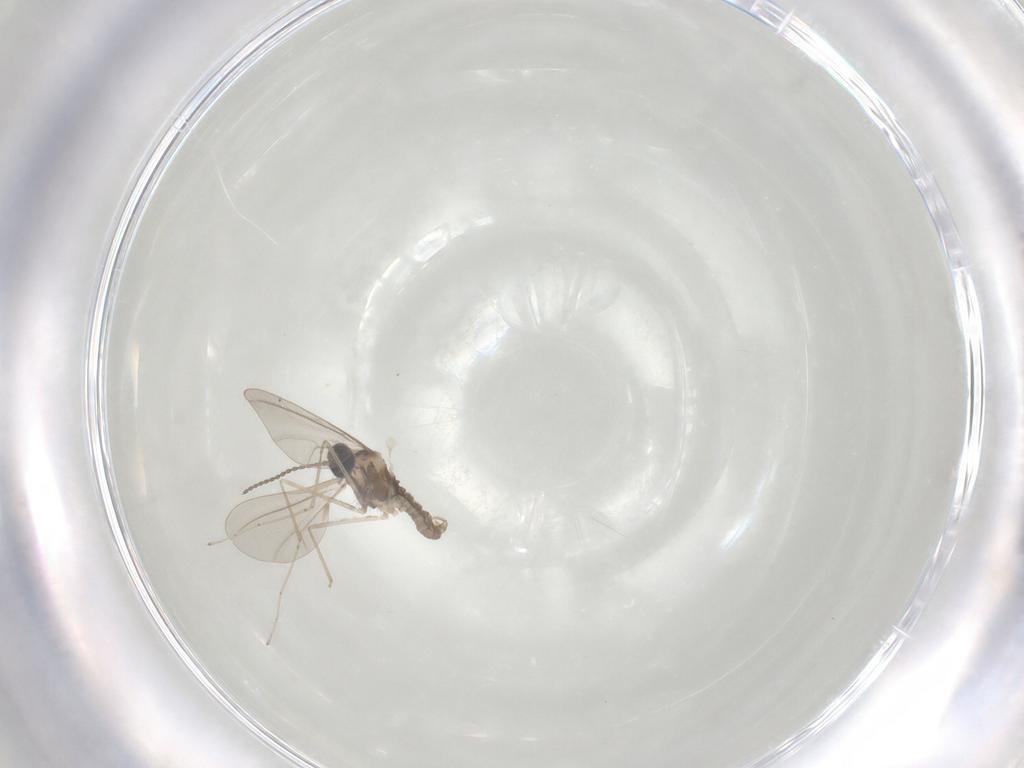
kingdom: Animalia
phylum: Arthropoda
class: Insecta
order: Diptera
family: Cecidomyiidae
